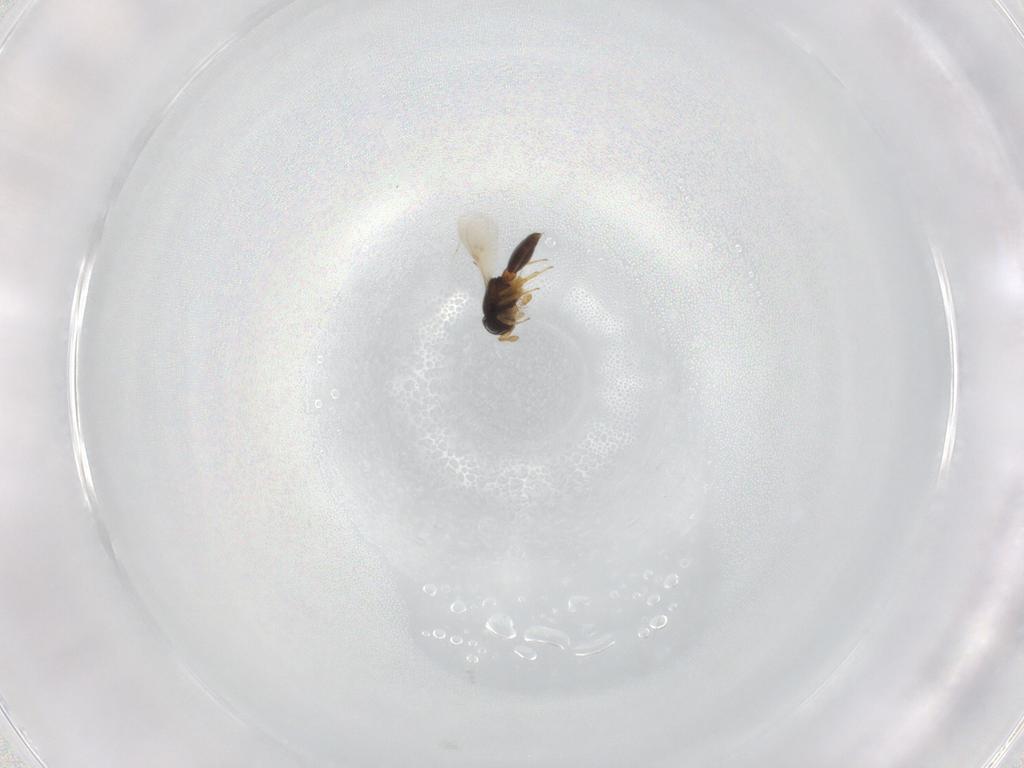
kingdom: Animalia
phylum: Arthropoda
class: Insecta
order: Hymenoptera
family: Scelionidae
